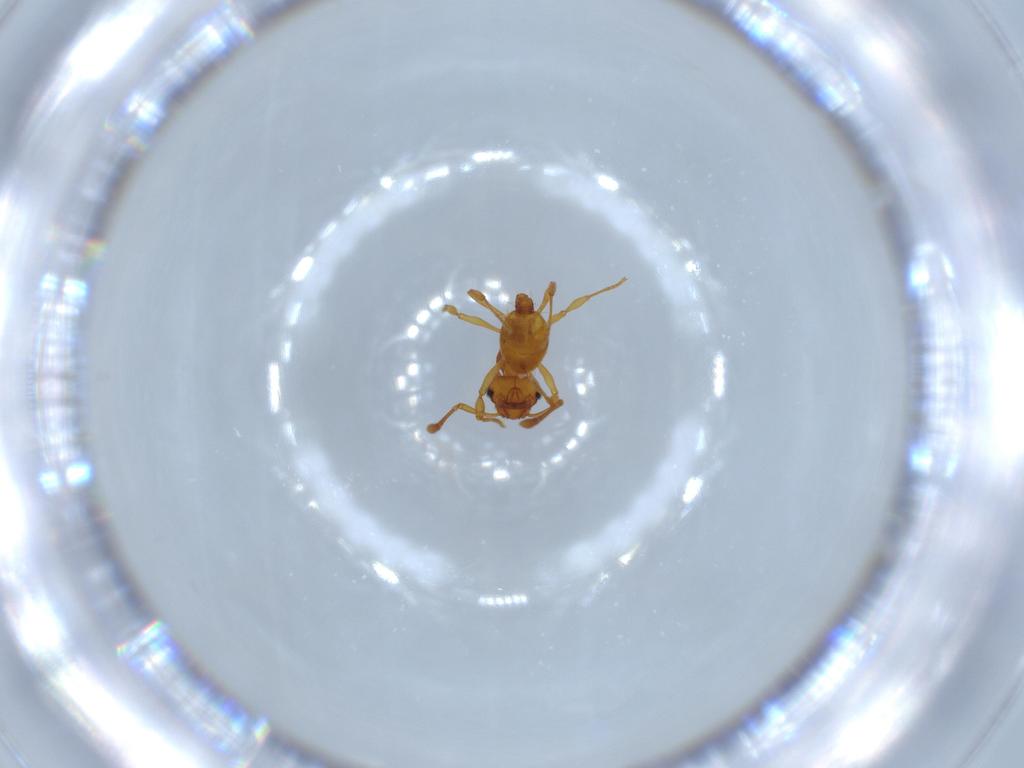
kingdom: Animalia
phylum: Arthropoda
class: Insecta
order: Hymenoptera
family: Formicidae
